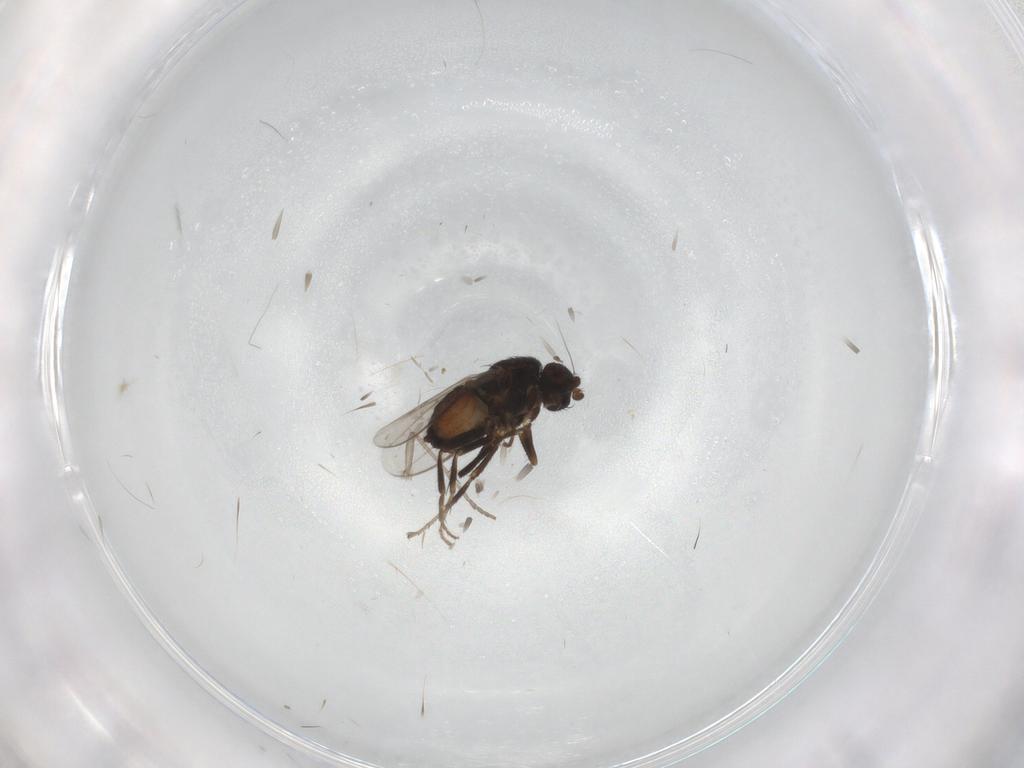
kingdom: Animalia
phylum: Arthropoda
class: Insecta
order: Diptera
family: Sphaeroceridae
